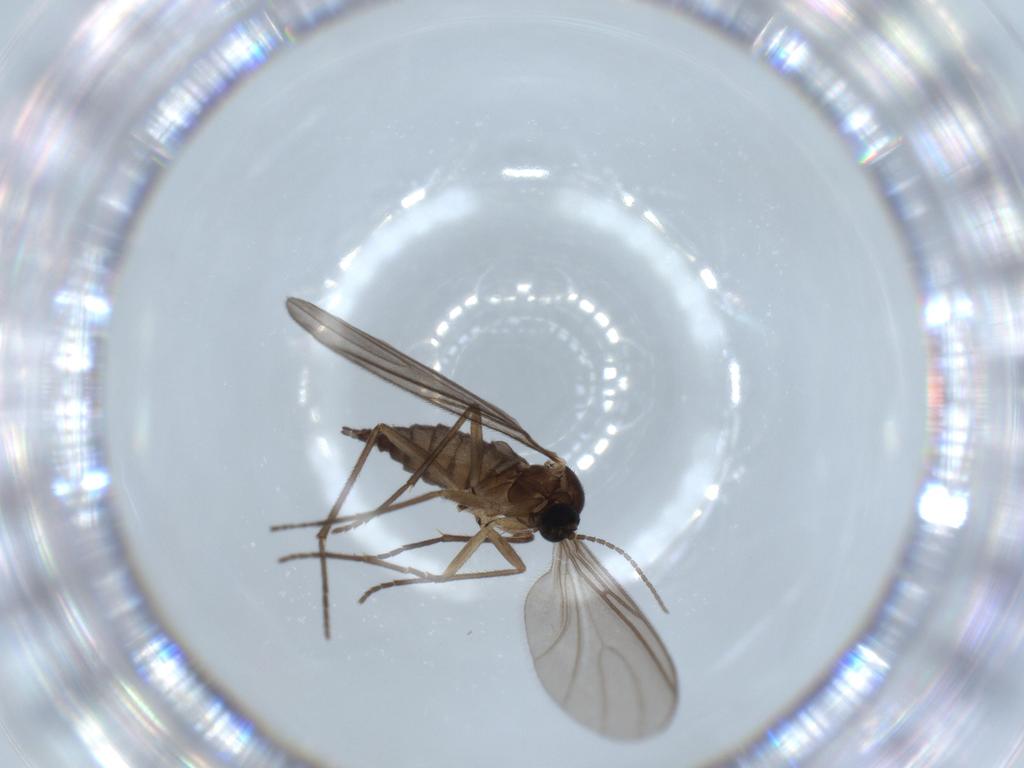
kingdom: Animalia
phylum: Arthropoda
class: Insecta
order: Diptera
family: Sciaridae
